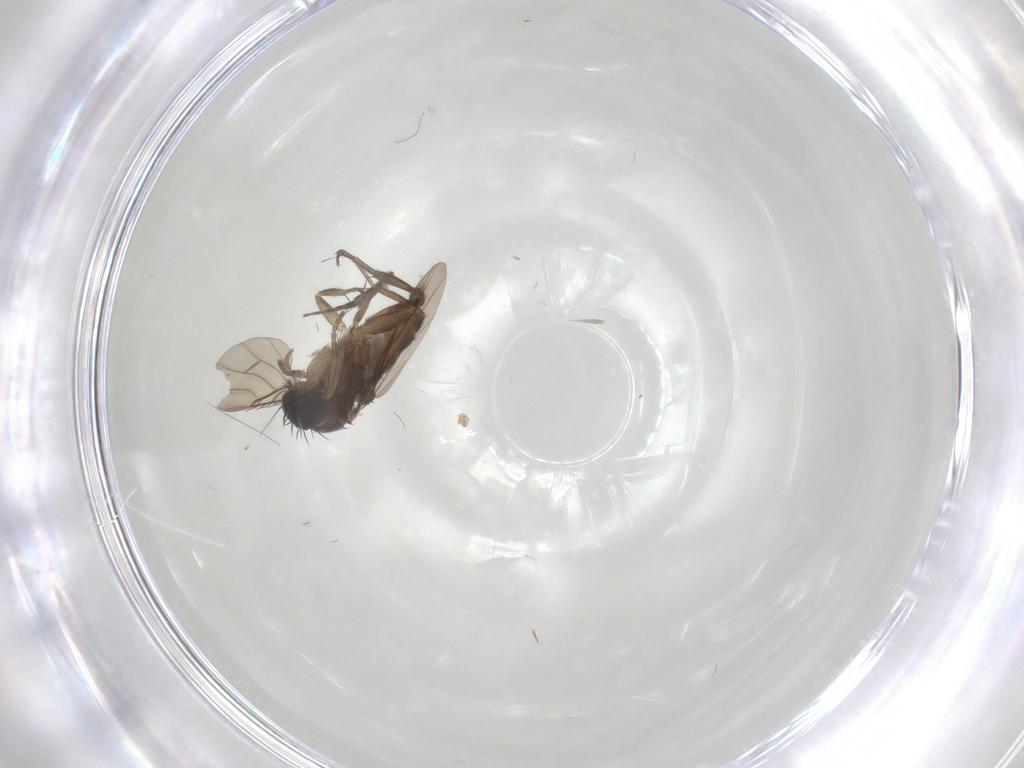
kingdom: Animalia
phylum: Arthropoda
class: Insecta
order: Diptera
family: Phoridae
